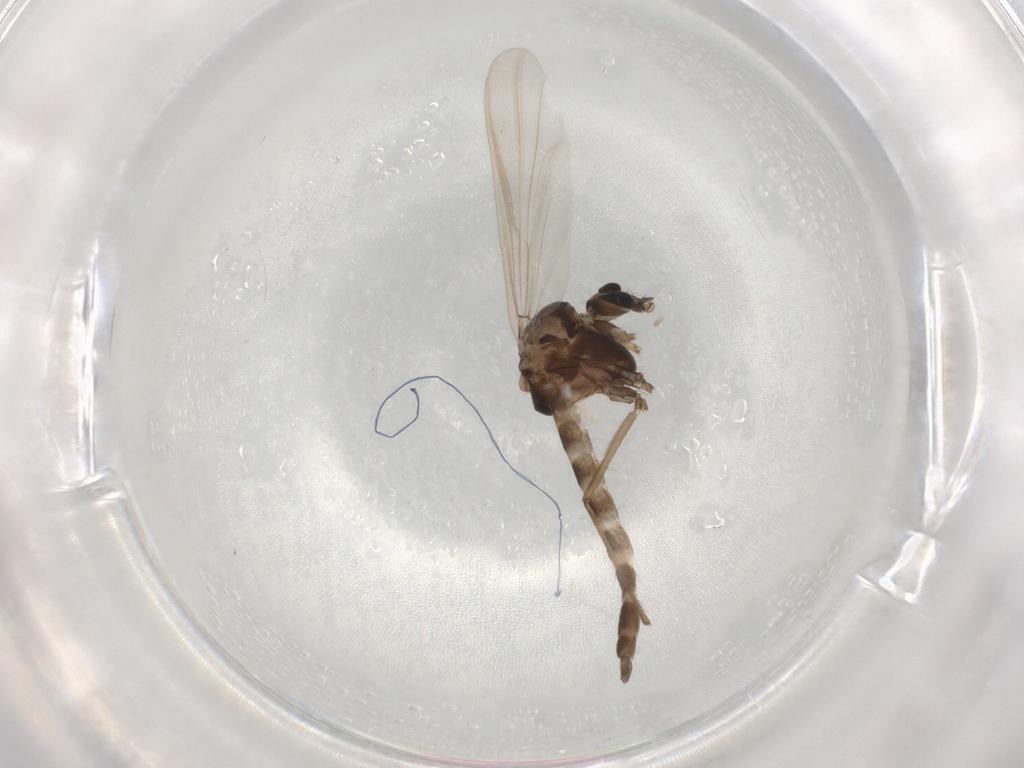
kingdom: Animalia
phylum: Arthropoda
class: Insecta
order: Diptera
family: Chironomidae
